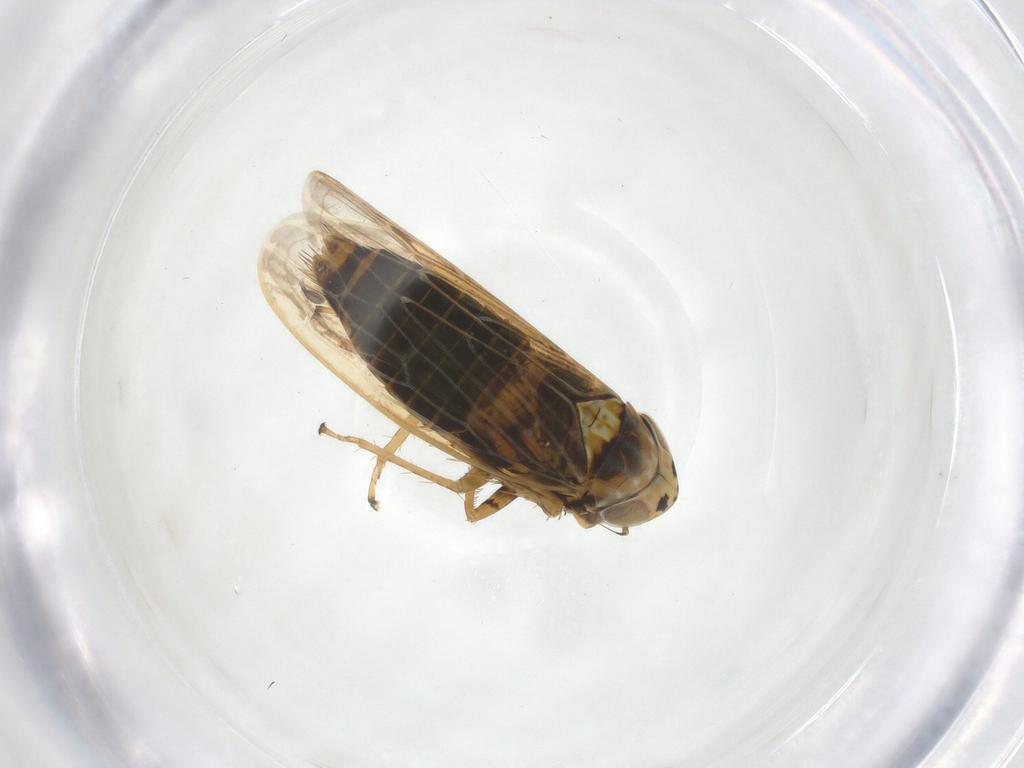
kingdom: Animalia
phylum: Arthropoda
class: Insecta
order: Hemiptera
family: Cicadellidae
